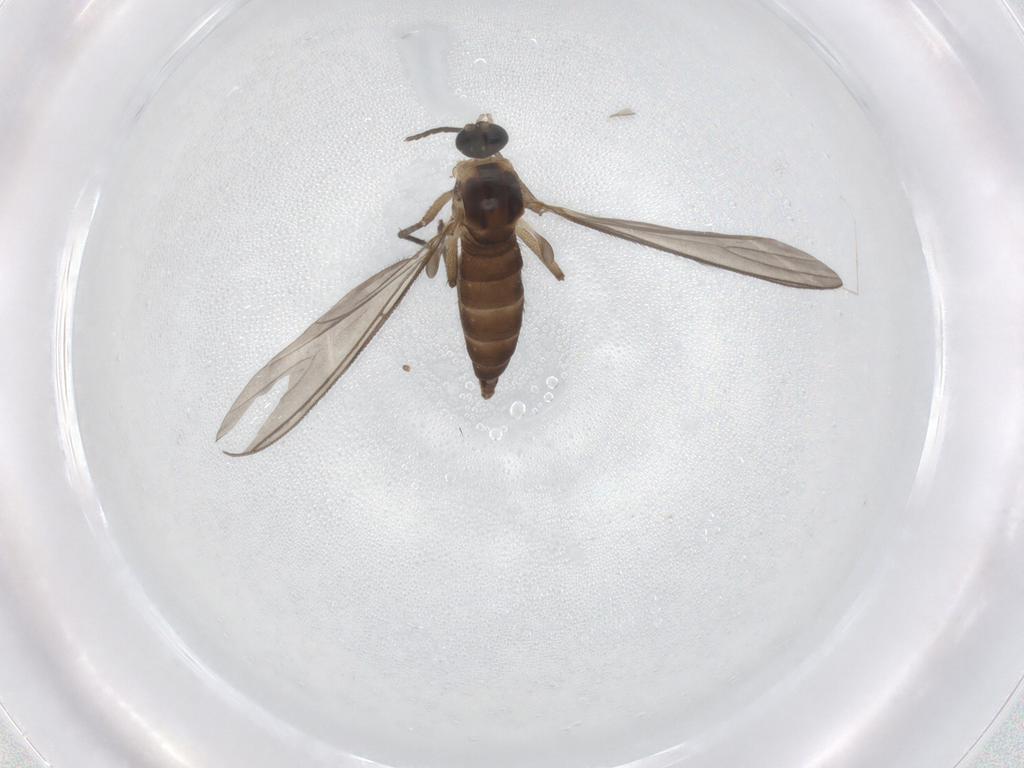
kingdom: Animalia
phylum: Arthropoda
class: Insecta
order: Diptera
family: Sciaridae
